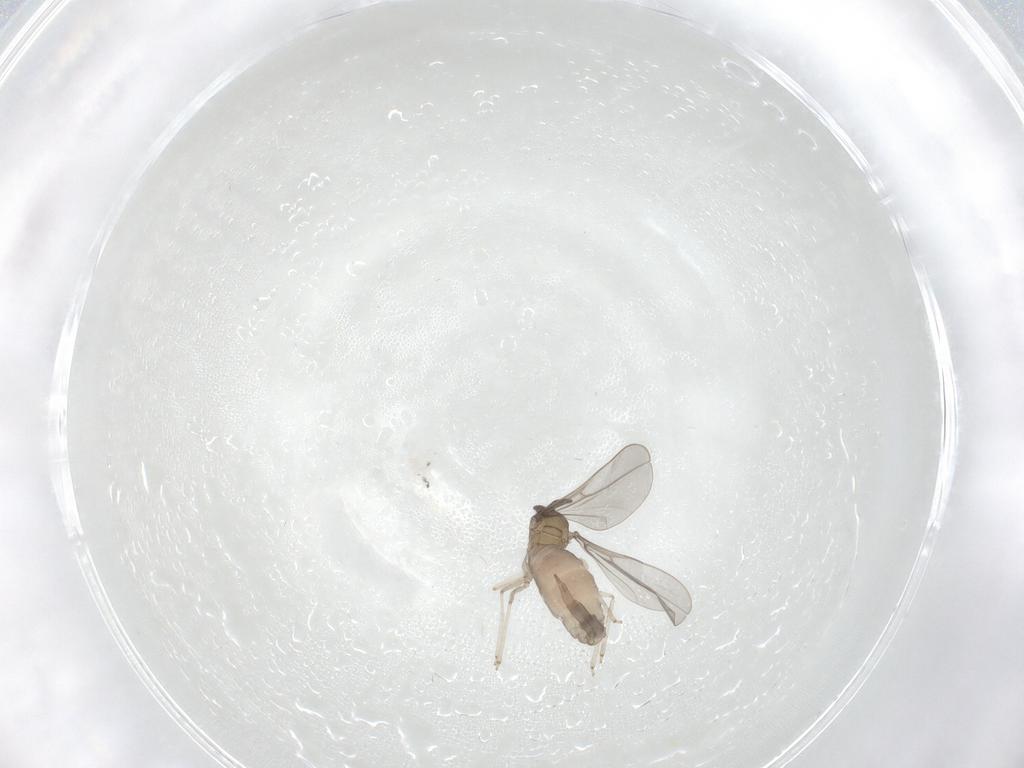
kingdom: Animalia
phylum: Arthropoda
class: Insecta
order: Diptera
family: Cecidomyiidae
